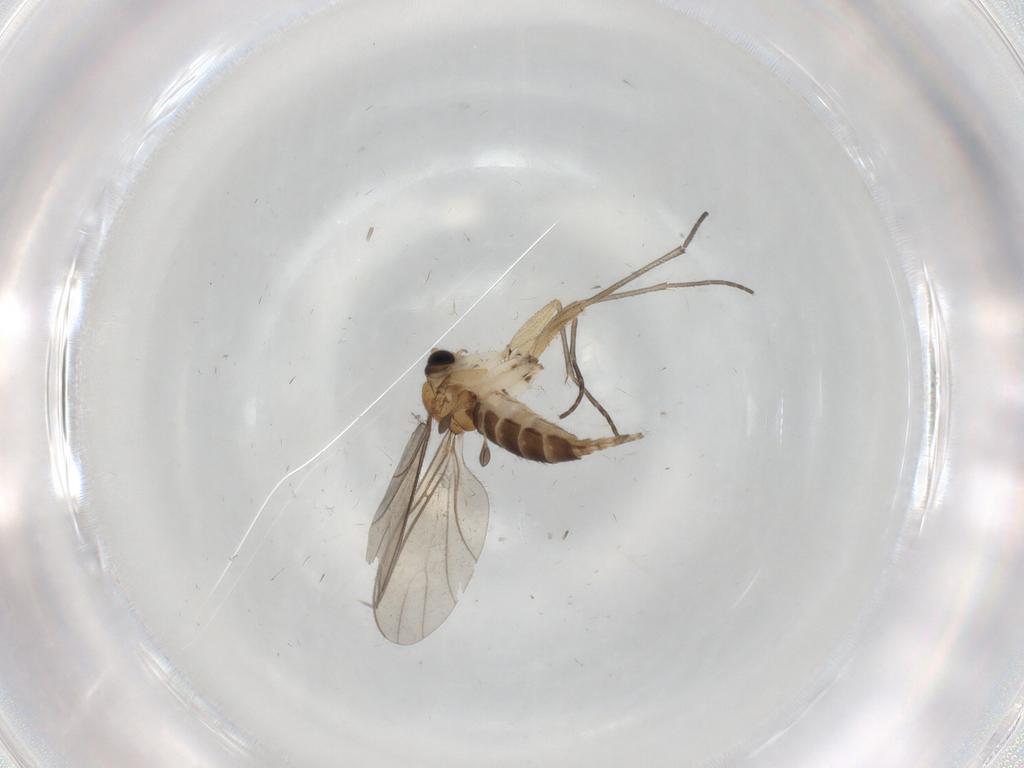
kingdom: Animalia
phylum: Arthropoda
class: Insecta
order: Diptera
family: Sciaridae
